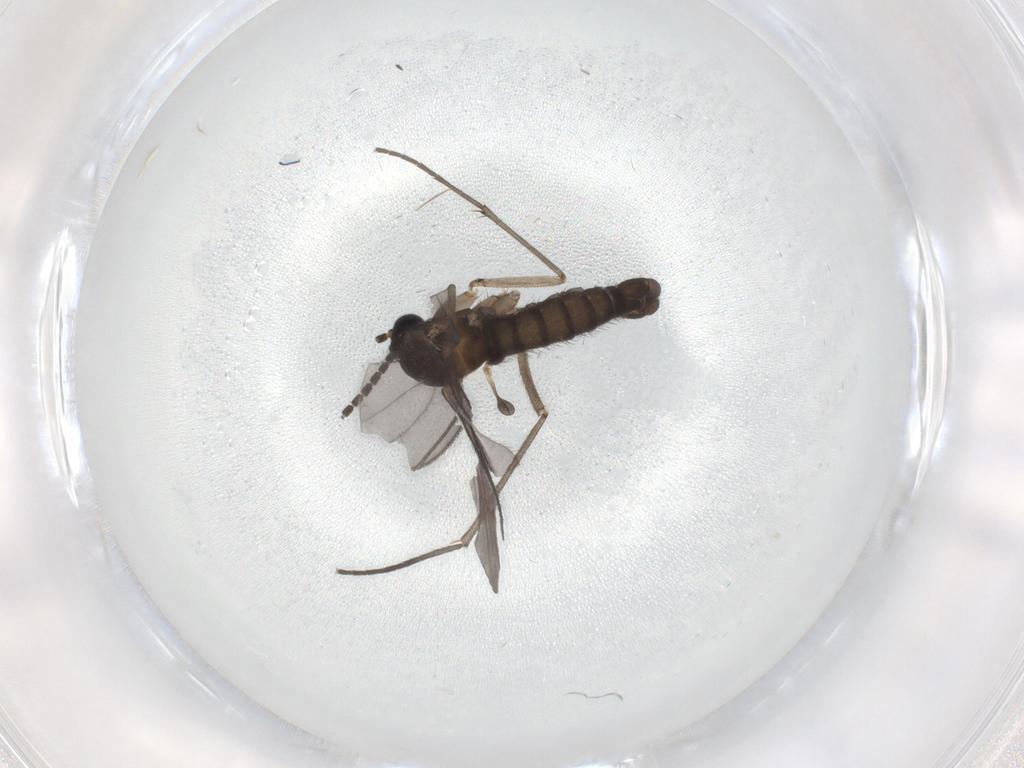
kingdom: Animalia
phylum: Arthropoda
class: Insecta
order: Diptera
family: Sciaridae
